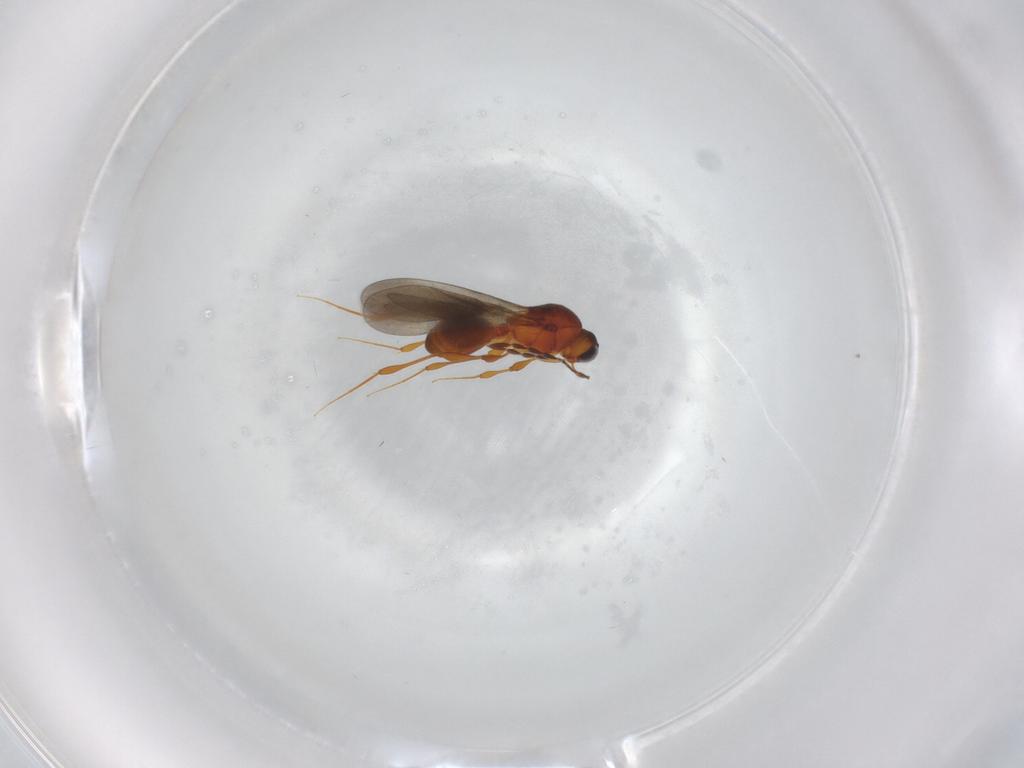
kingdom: Animalia
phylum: Arthropoda
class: Insecta
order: Hymenoptera
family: Platygastridae
